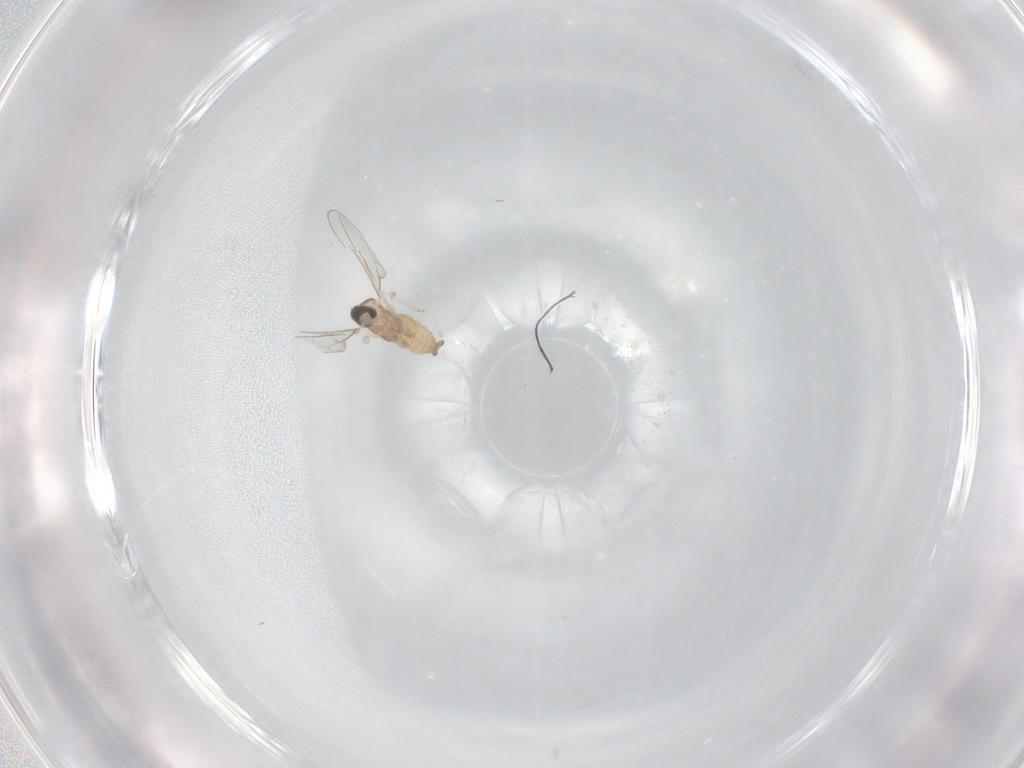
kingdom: Animalia
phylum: Arthropoda
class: Insecta
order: Diptera
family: Cecidomyiidae
